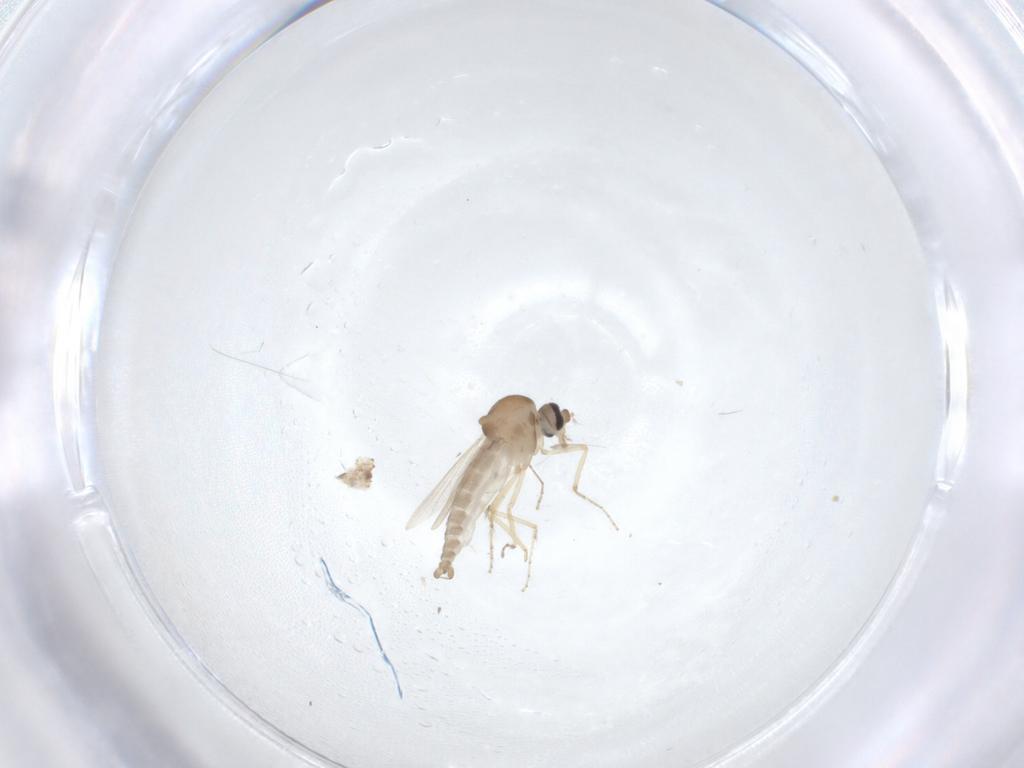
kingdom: Animalia
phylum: Arthropoda
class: Insecta
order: Diptera
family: Ceratopogonidae
